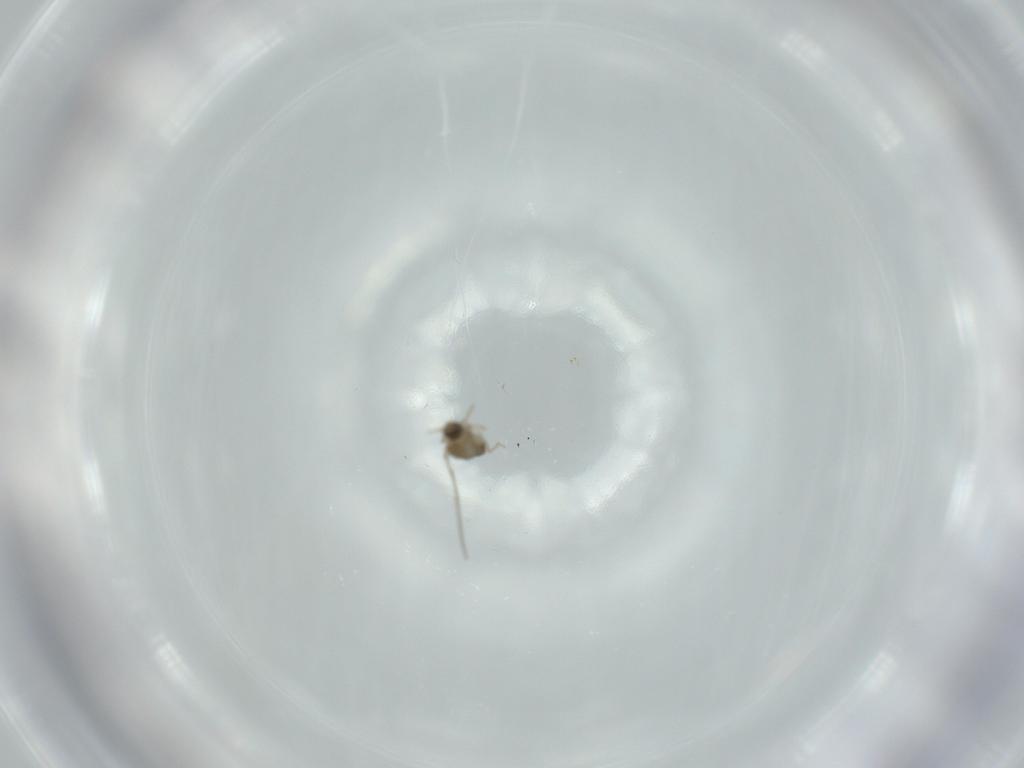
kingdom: Animalia
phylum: Arthropoda
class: Insecta
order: Diptera
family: Cecidomyiidae
